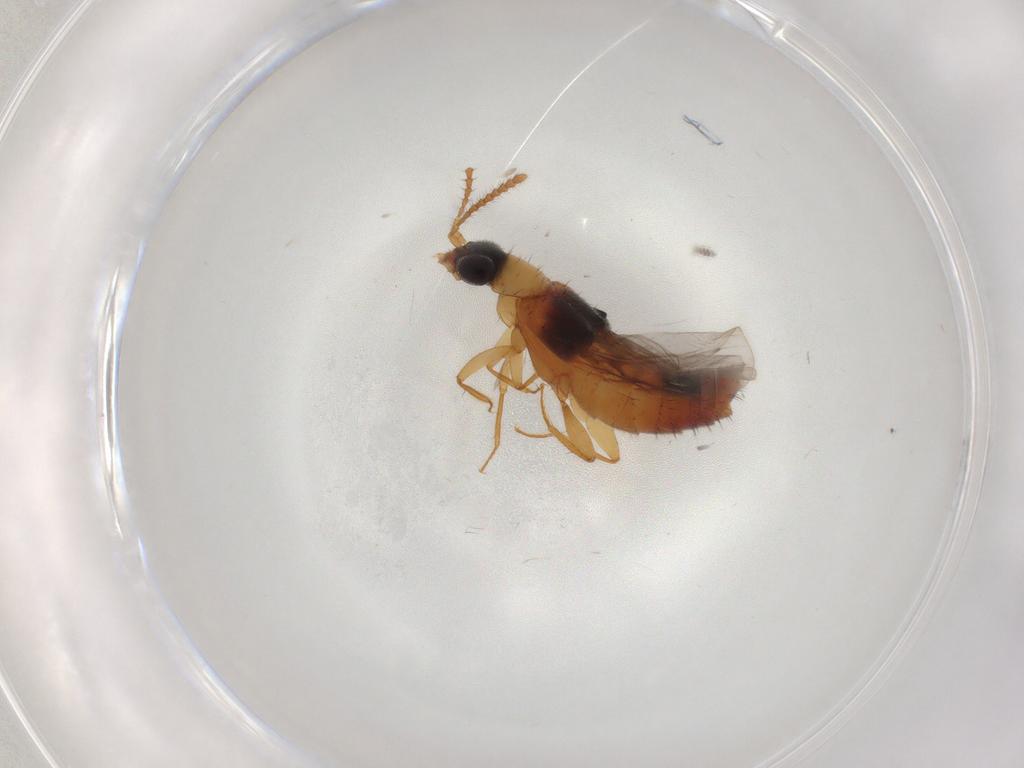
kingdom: Animalia
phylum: Arthropoda
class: Insecta
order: Coleoptera
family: Staphylinidae
